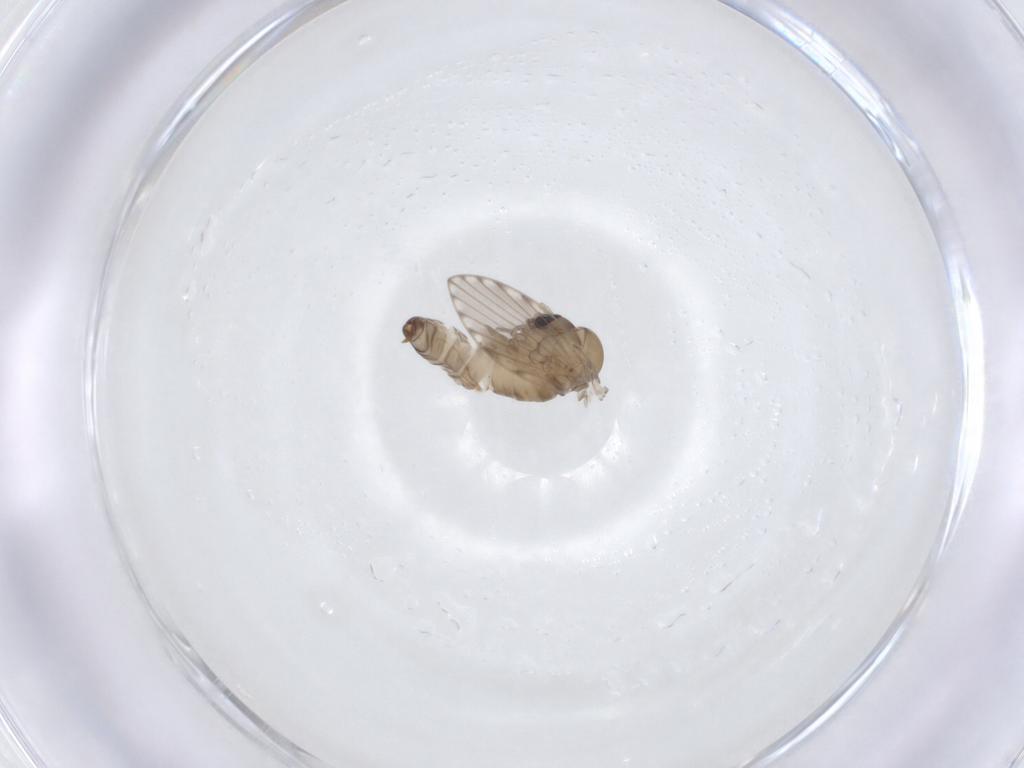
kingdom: Animalia
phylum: Arthropoda
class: Insecta
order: Diptera
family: Psychodidae
